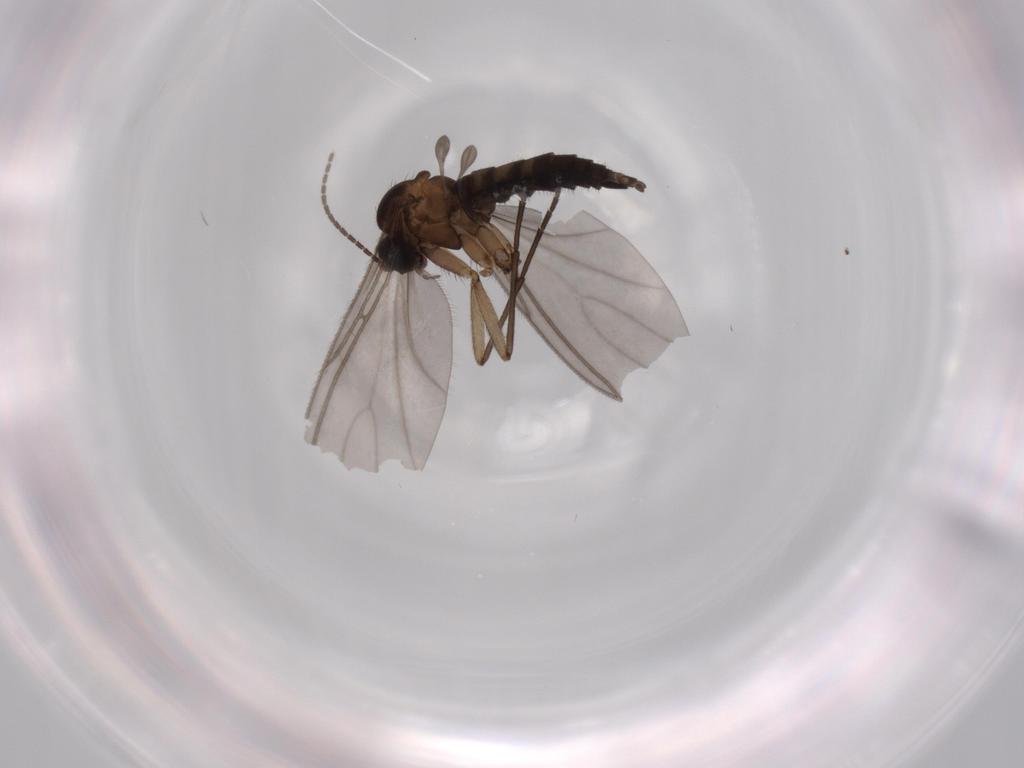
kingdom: Animalia
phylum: Arthropoda
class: Insecta
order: Diptera
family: Sciaridae
